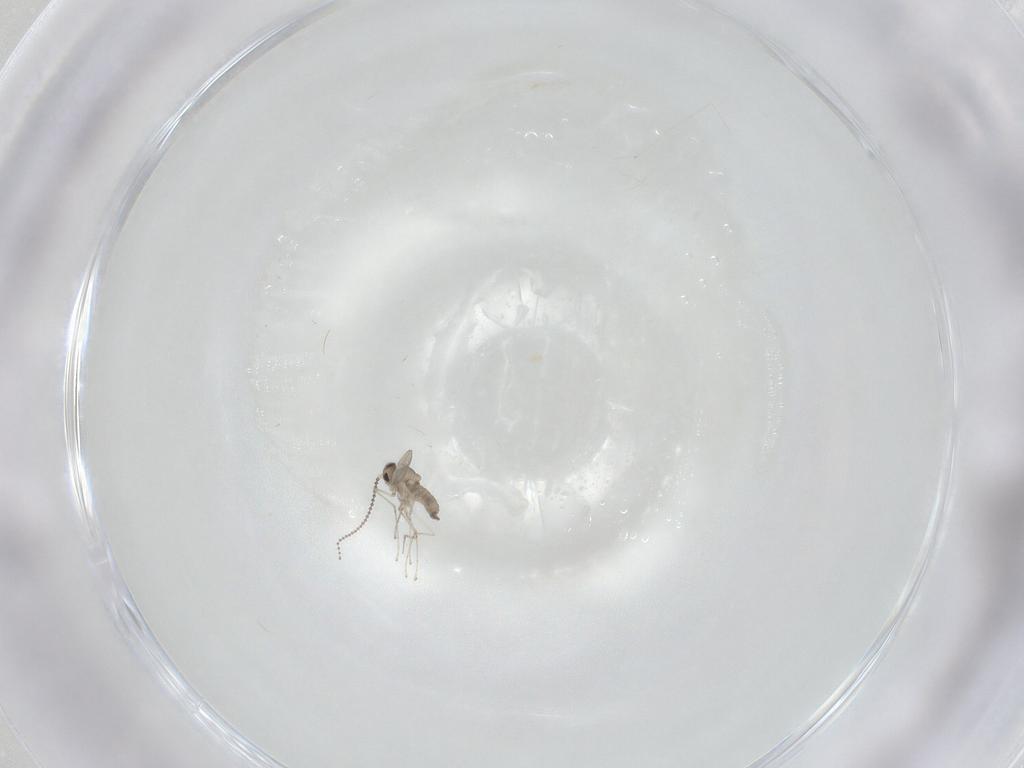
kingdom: Animalia
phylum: Arthropoda
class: Insecta
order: Diptera
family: Cecidomyiidae
